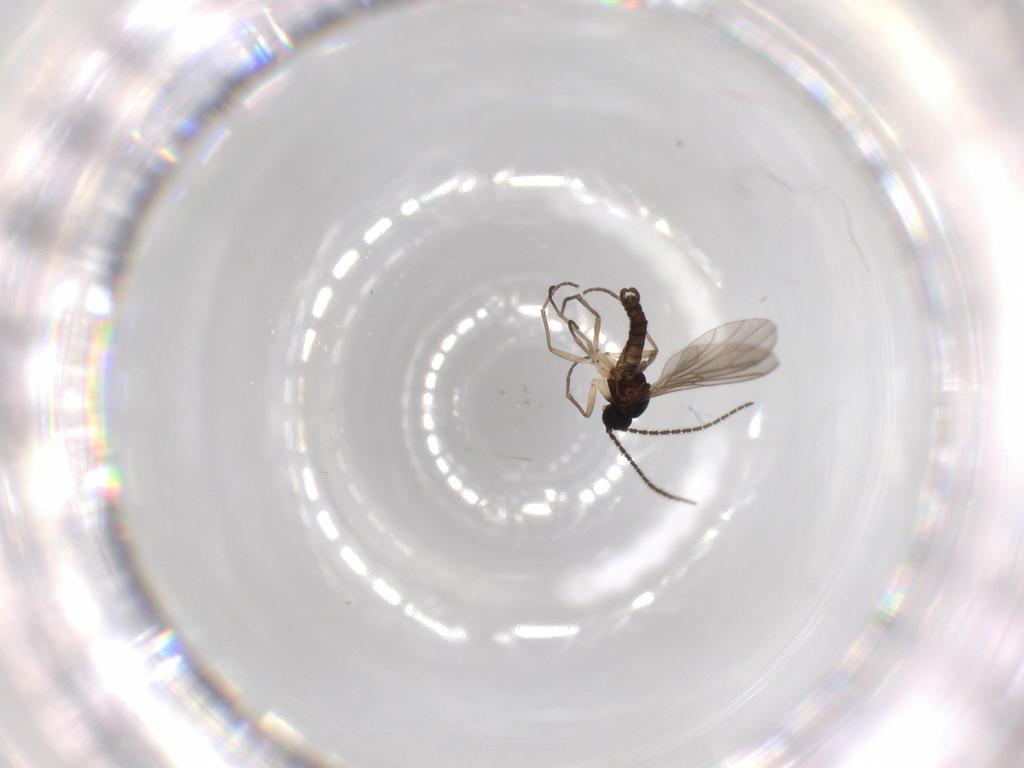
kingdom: Animalia
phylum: Arthropoda
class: Insecta
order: Diptera
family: Sciaridae
